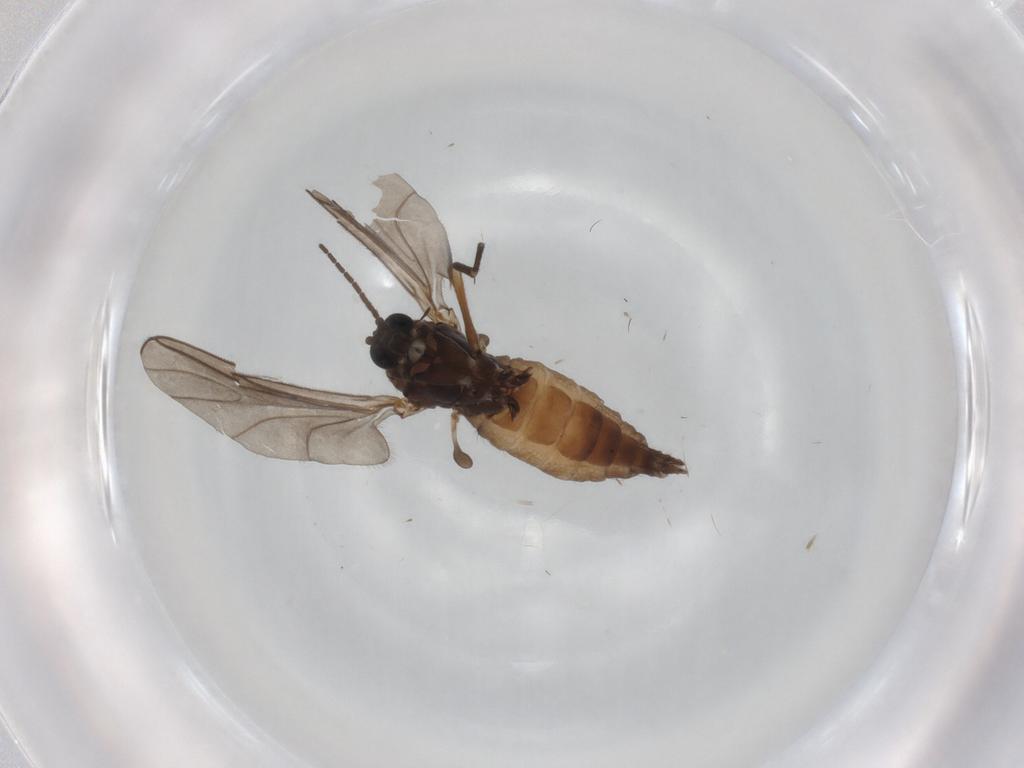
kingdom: Animalia
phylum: Arthropoda
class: Insecta
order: Diptera
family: Sciaridae
